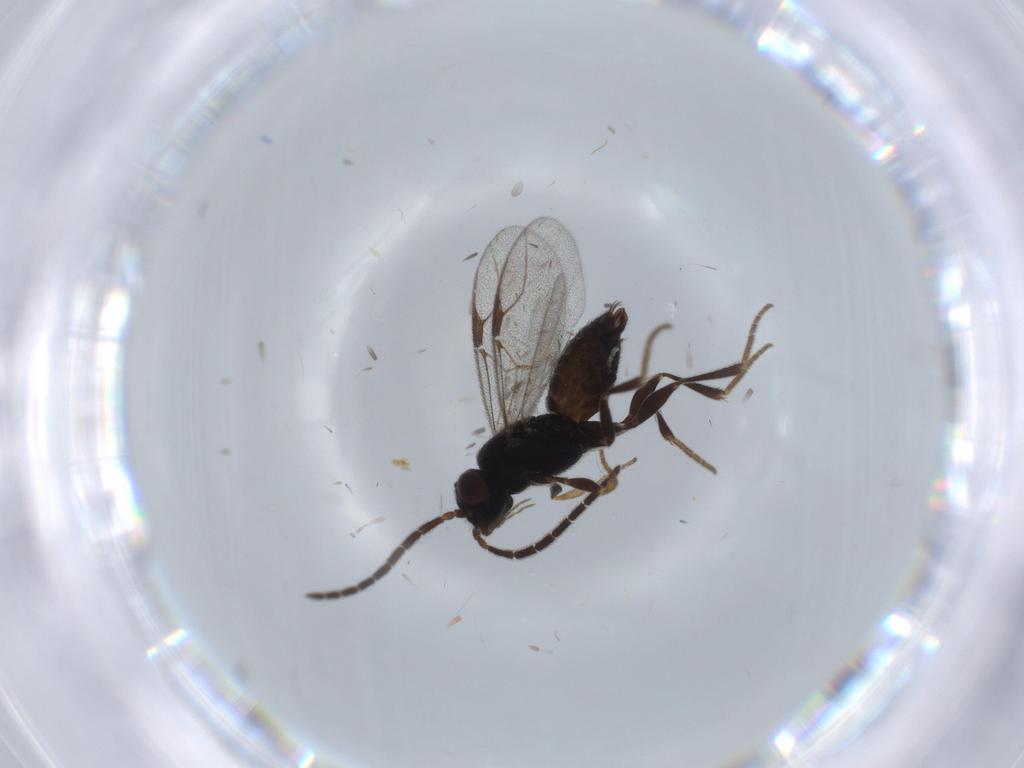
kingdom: Animalia
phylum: Arthropoda
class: Insecta
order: Hymenoptera
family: Dryinidae
